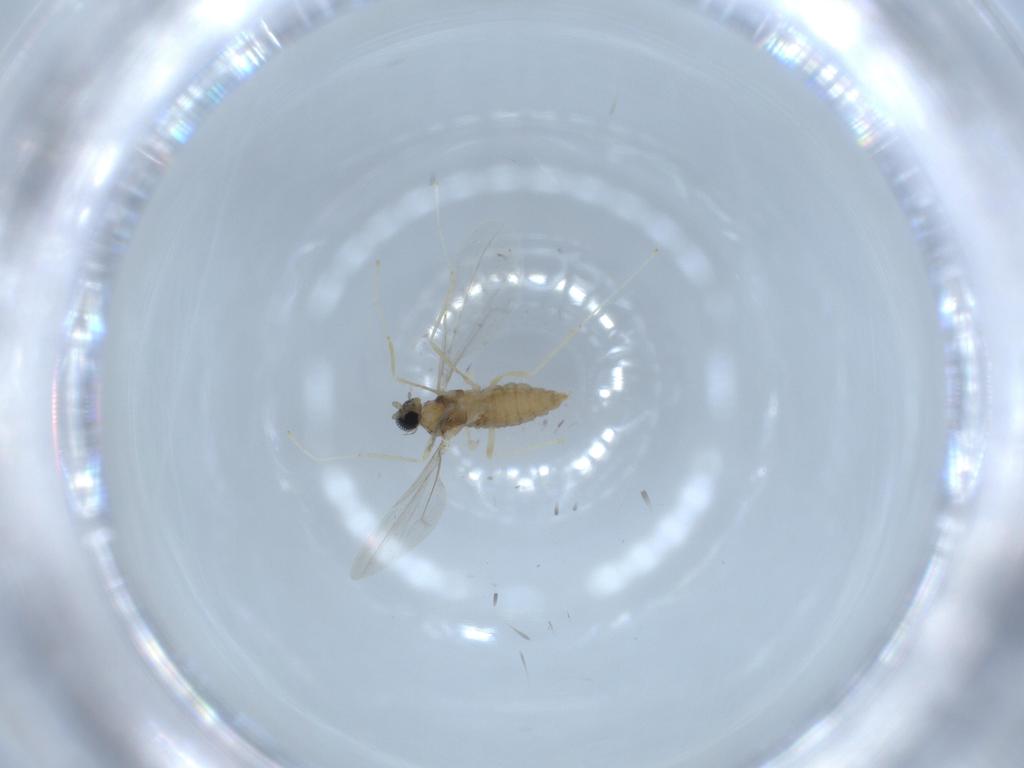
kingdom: Animalia
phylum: Arthropoda
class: Insecta
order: Diptera
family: Cecidomyiidae
